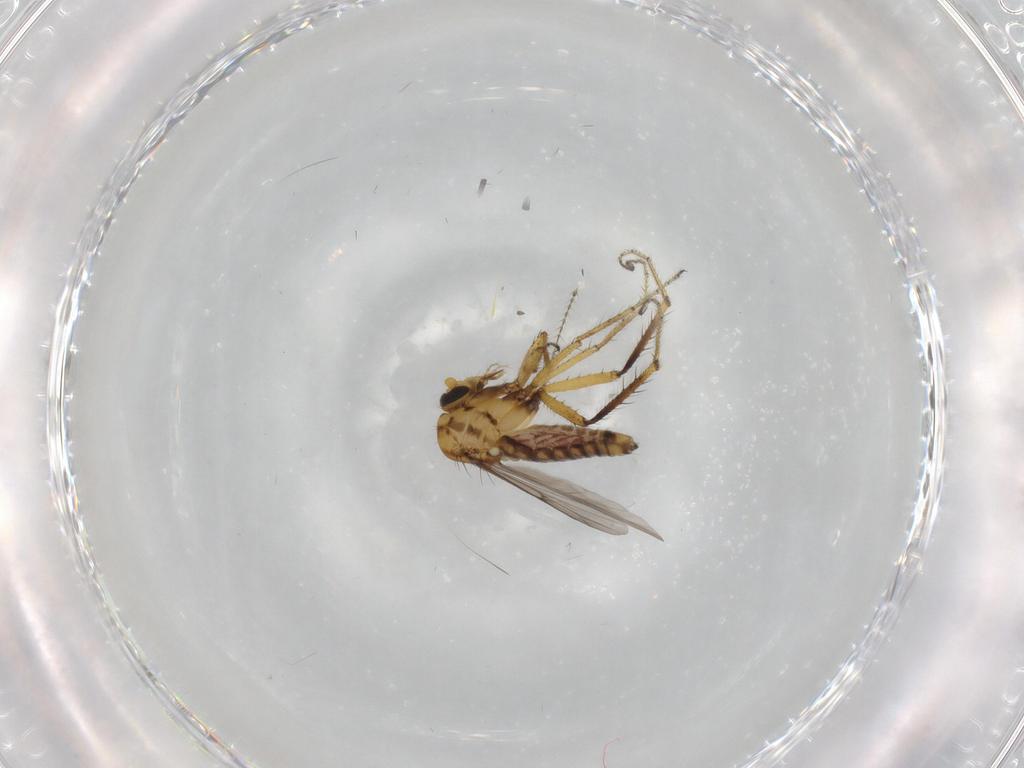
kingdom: Animalia
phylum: Arthropoda
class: Insecta
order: Diptera
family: Ceratopogonidae
